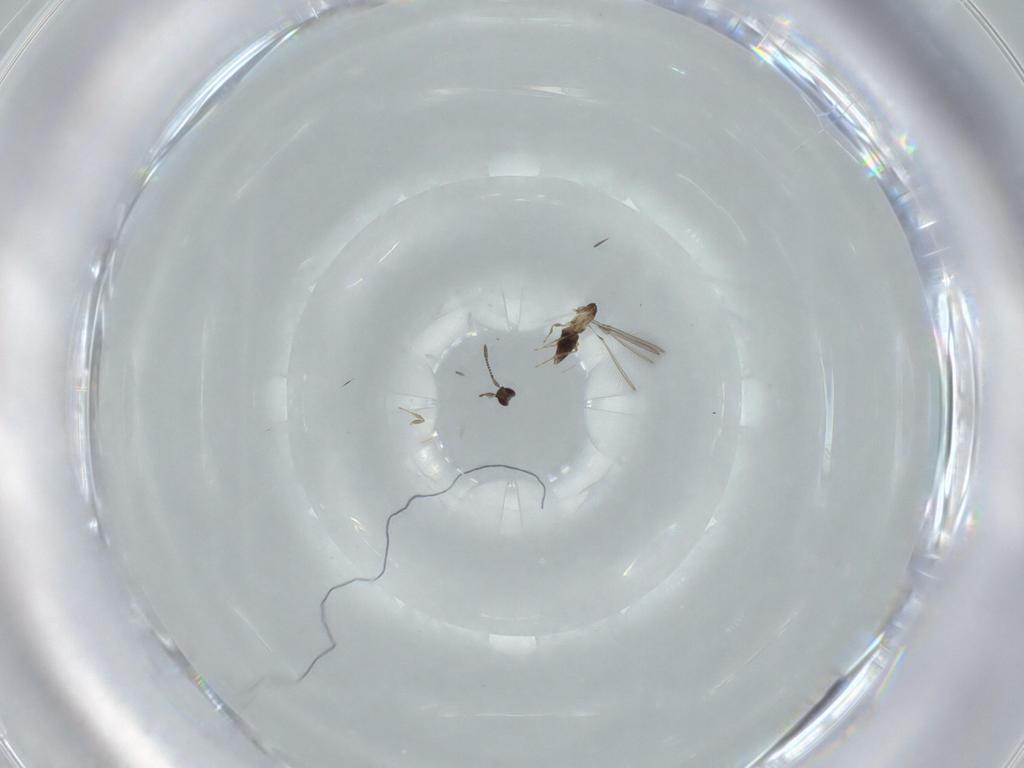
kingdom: Animalia
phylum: Arthropoda
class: Insecta
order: Hymenoptera
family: Mymaridae
